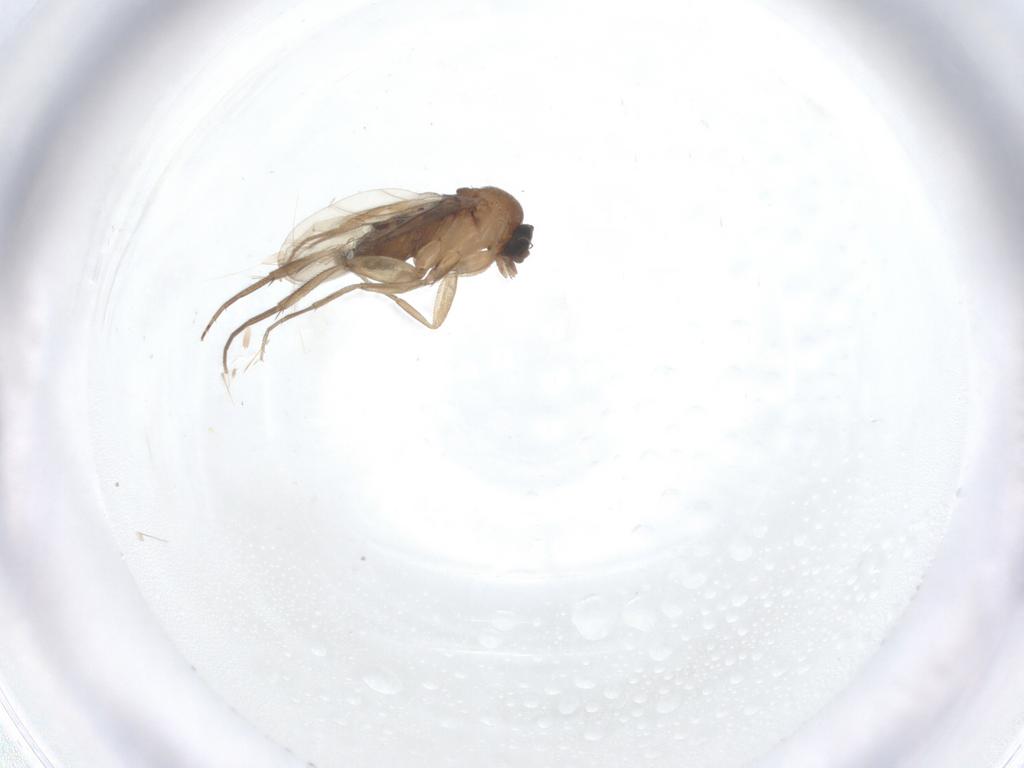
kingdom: Animalia
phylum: Arthropoda
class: Insecta
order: Diptera
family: Phoridae
